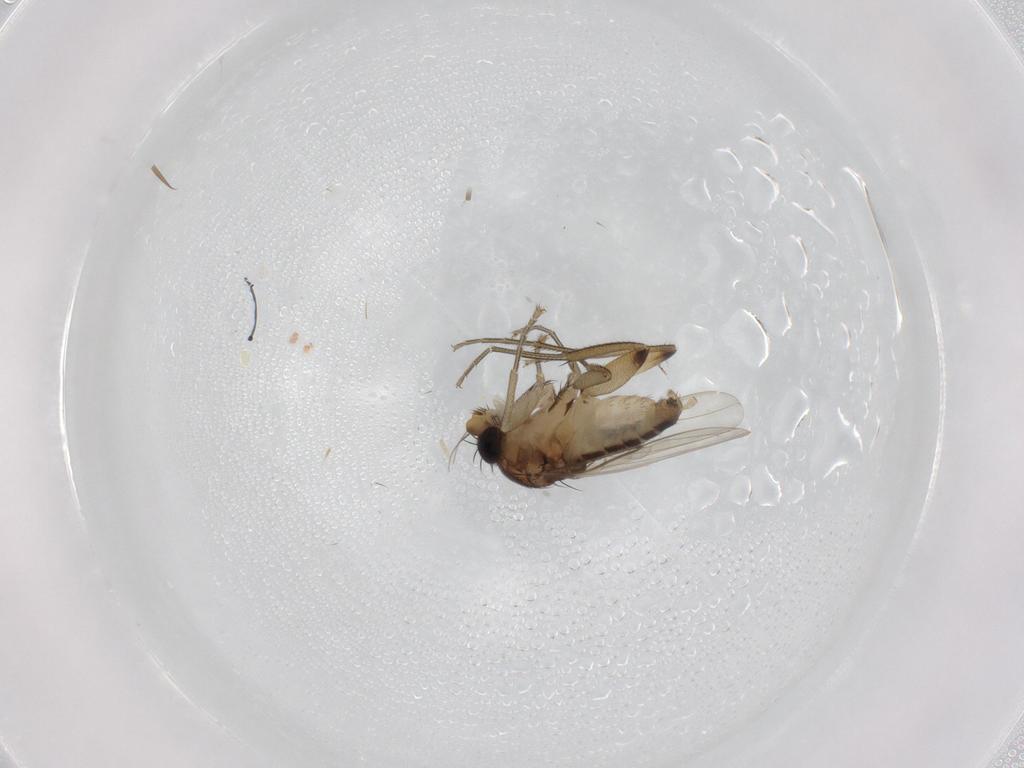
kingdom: Animalia
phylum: Arthropoda
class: Insecta
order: Diptera
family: Phoridae
